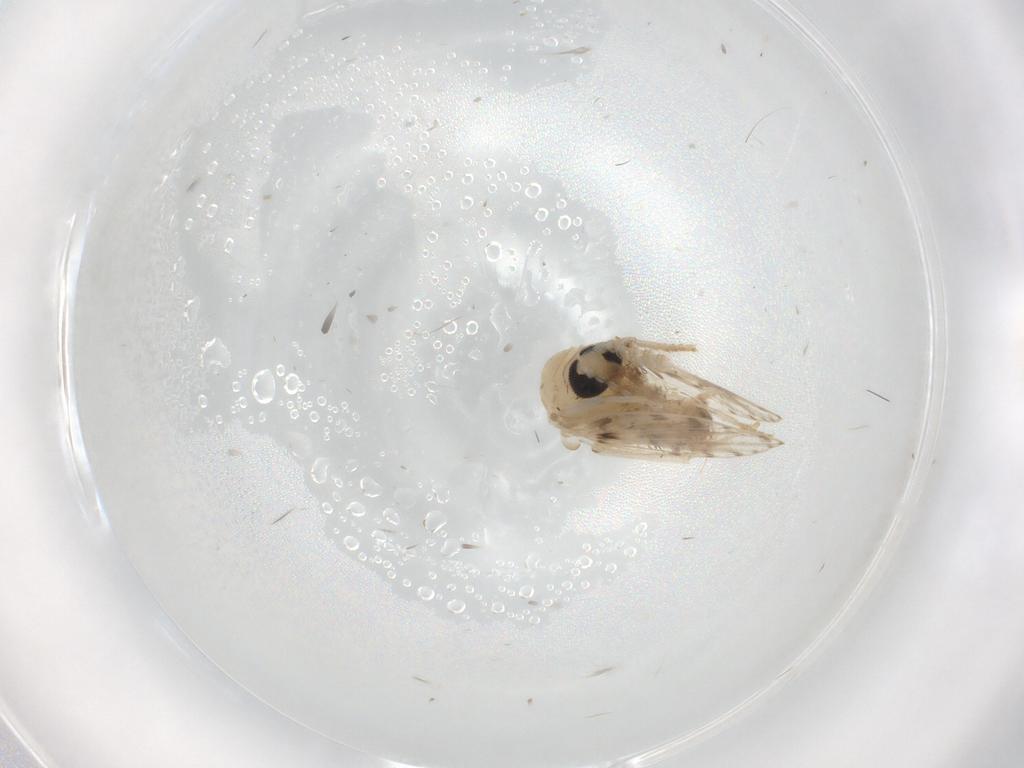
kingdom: Animalia
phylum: Arthropoda
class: Insecta
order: Diptera
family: Psychodidae
